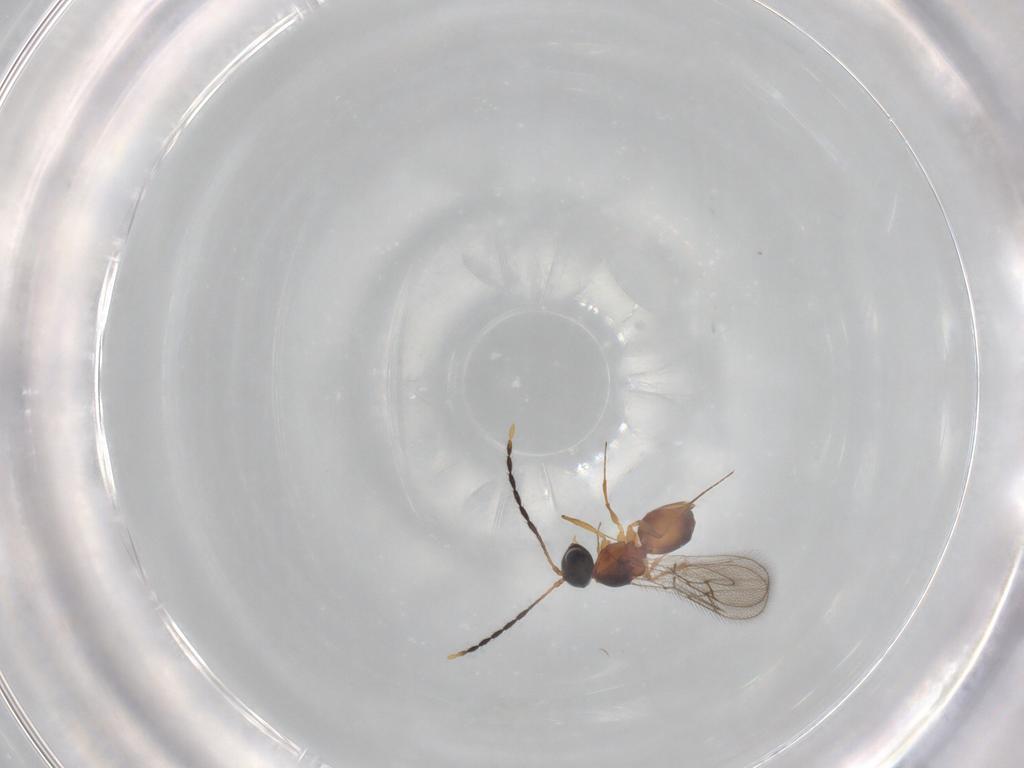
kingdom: Animalia
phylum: Arthropoda
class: Insecta
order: Hymenoptera
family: Figitidae
